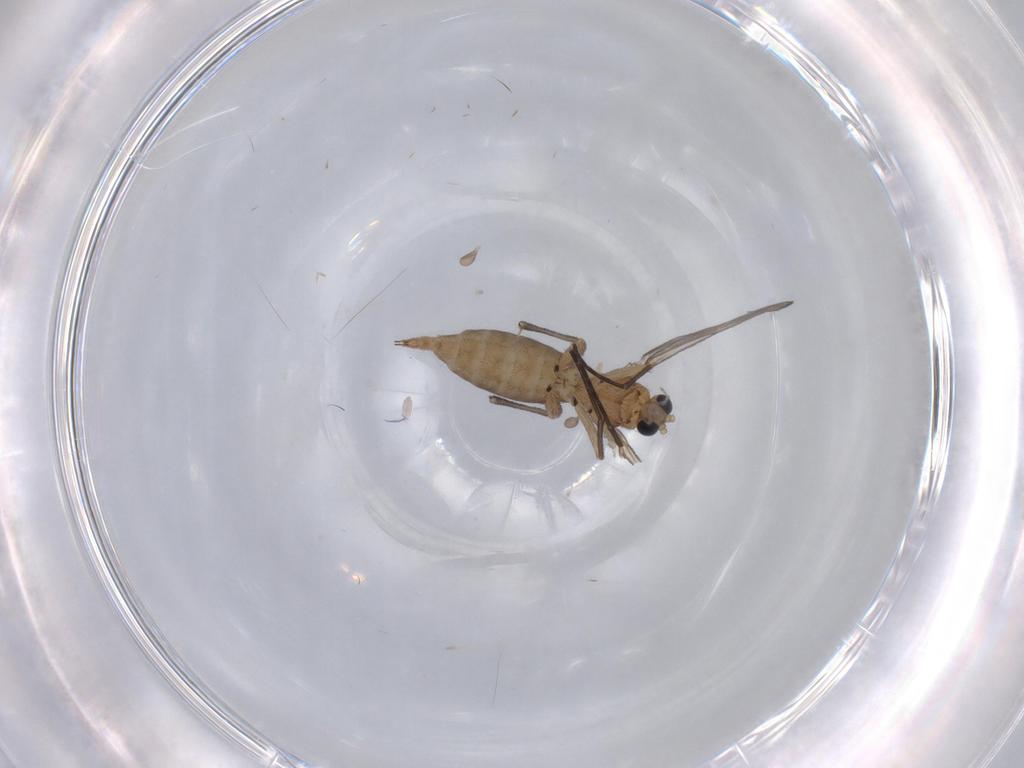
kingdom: Animalia
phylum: Arthropoda
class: Insecta
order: Diptera
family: Sciaridae
